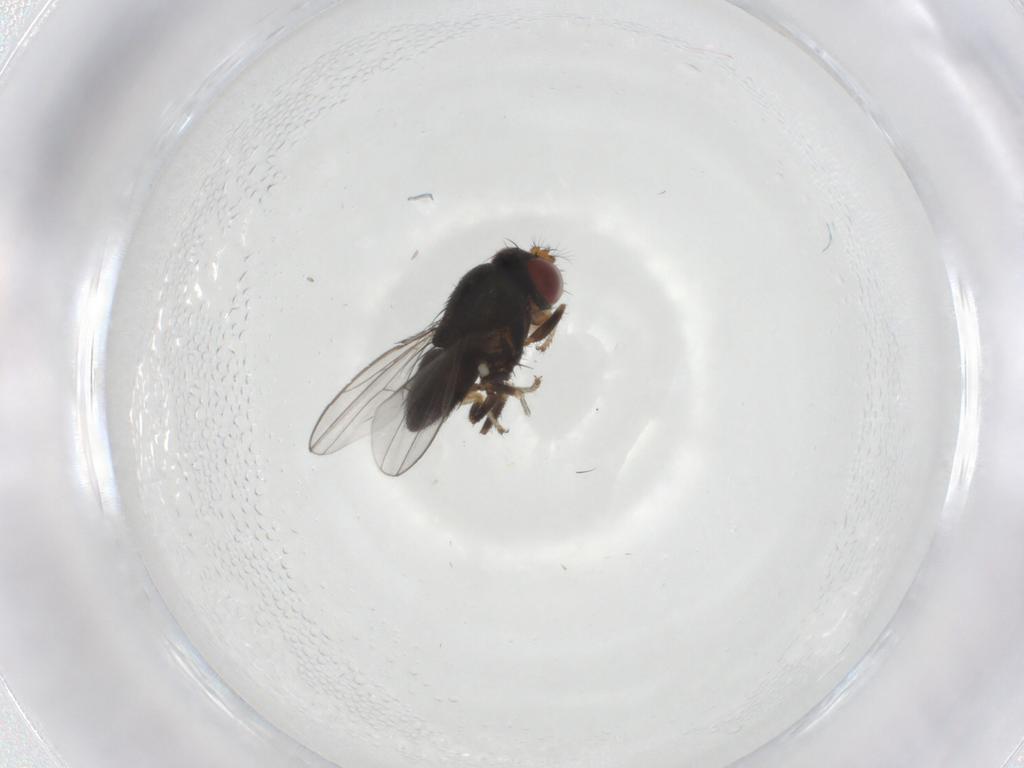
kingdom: Animalia
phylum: Arthropoda
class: Insecta
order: Diptera
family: Ephydridae
